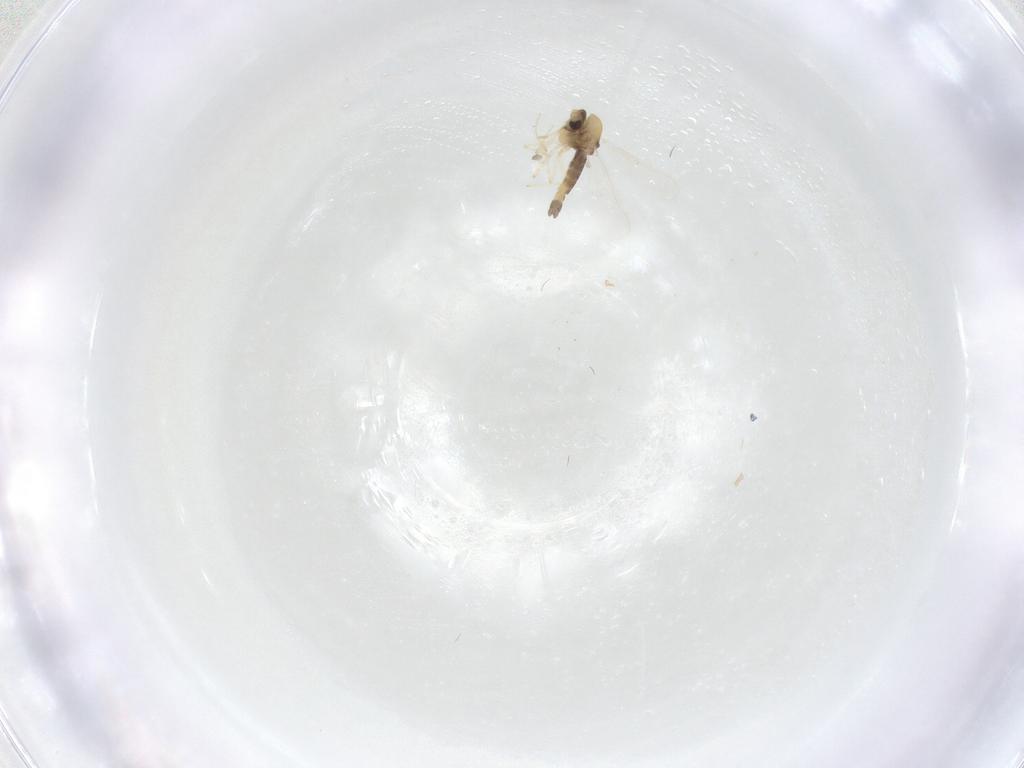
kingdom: Animalia
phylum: Arthropoda
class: Insecta
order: Diptera
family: Chironomidae
